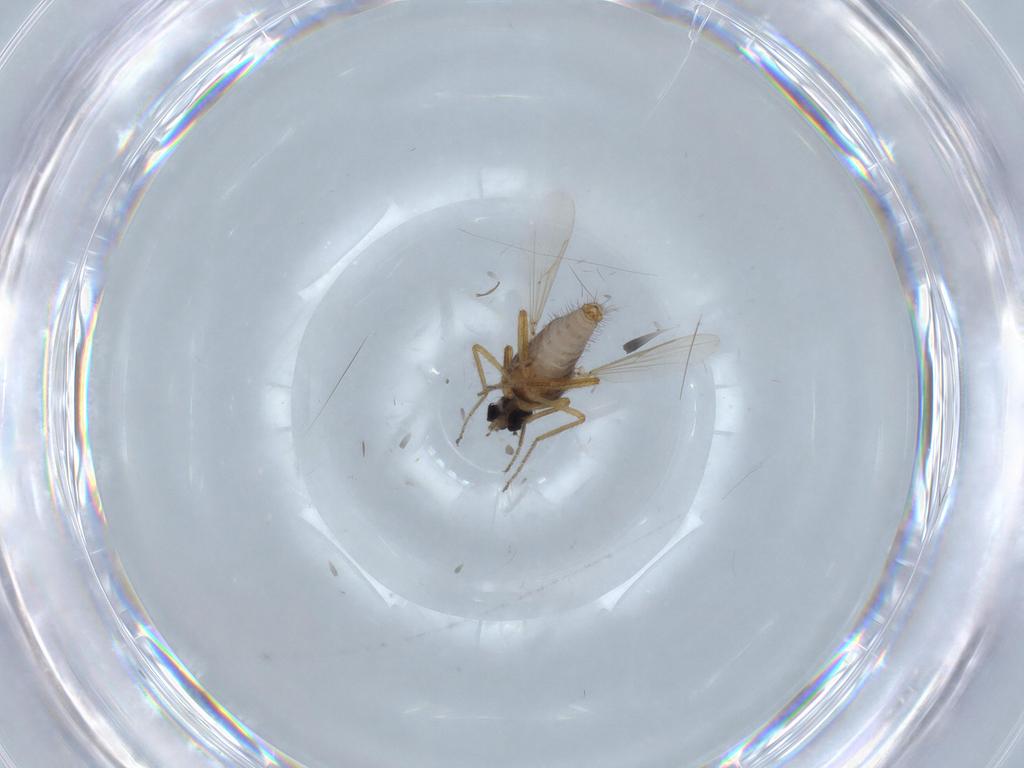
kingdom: Animalia
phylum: Arthropoda
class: Insecta
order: Diptera
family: Ceratopogonidae
